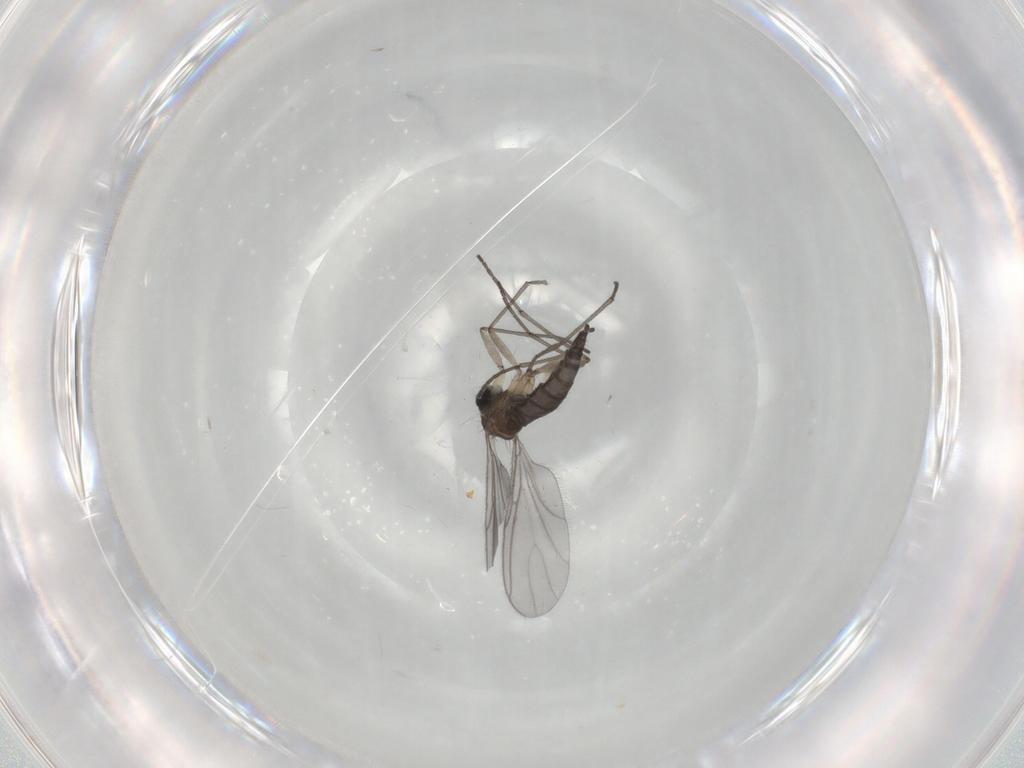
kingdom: Animalia
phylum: Arthropoda
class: Insecta
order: Diptera
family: Sciaridae
